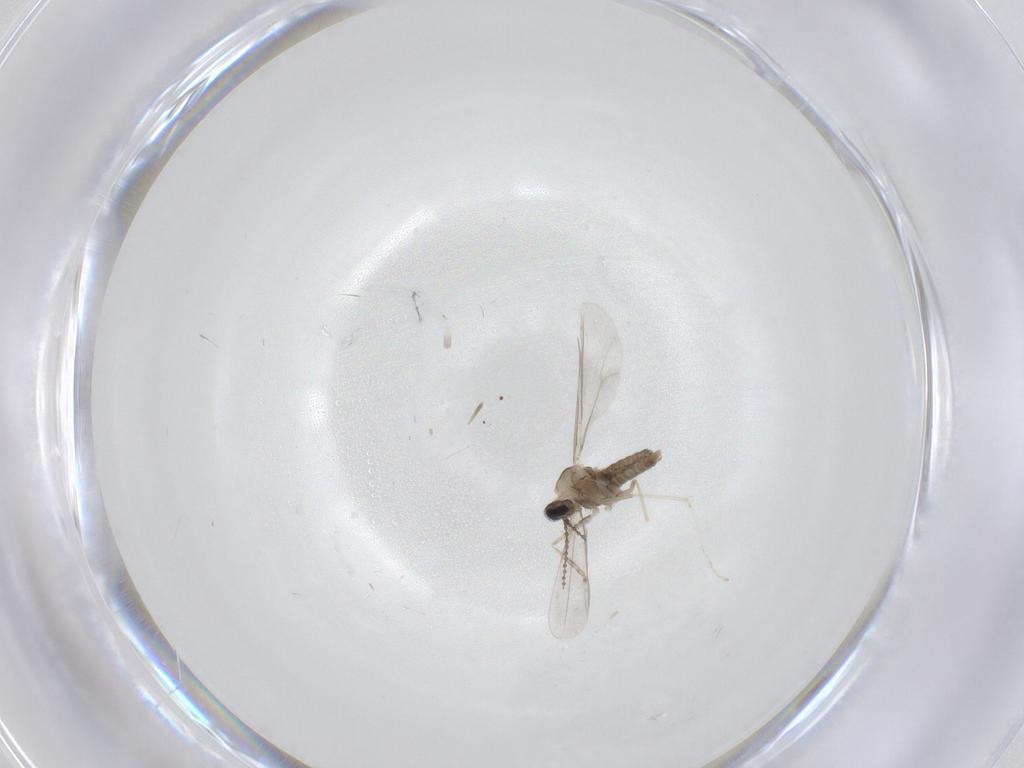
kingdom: Animalia
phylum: Arthropoda
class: Insecta
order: Diptera
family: Cecidomyiidae
